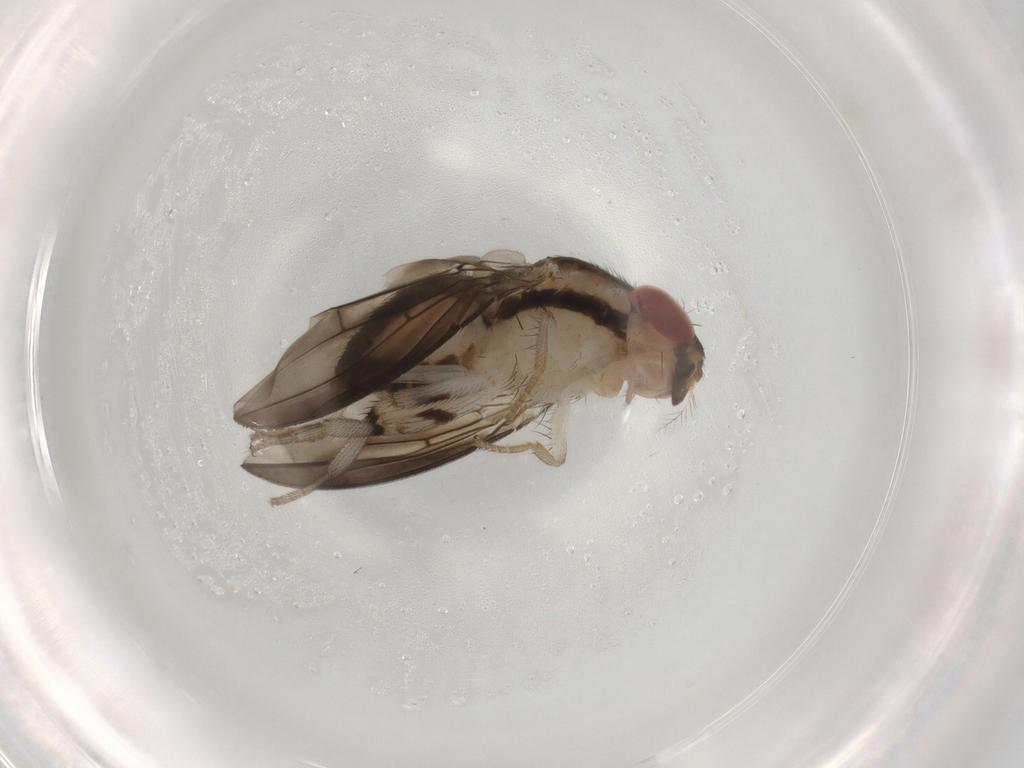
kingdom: Animalia
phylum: Arthropoda
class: Insecta
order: Diptera
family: Drosophilidae
